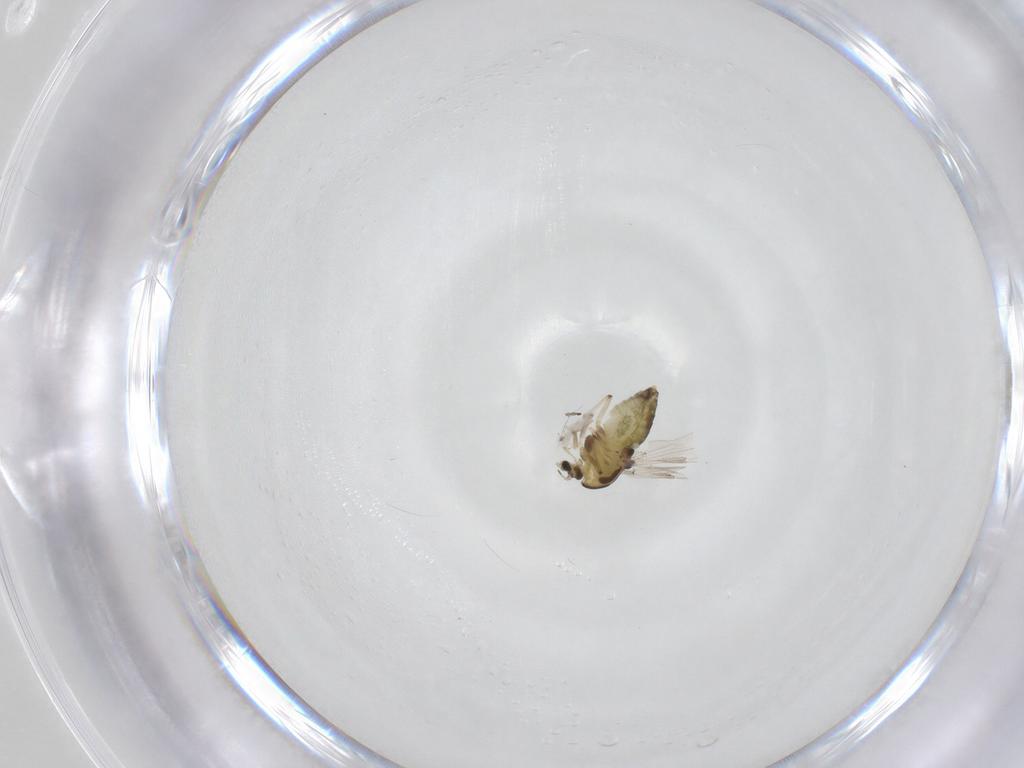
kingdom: Animalia
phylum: Arthropoda
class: Insecta
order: Diptera
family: Chironomidae
